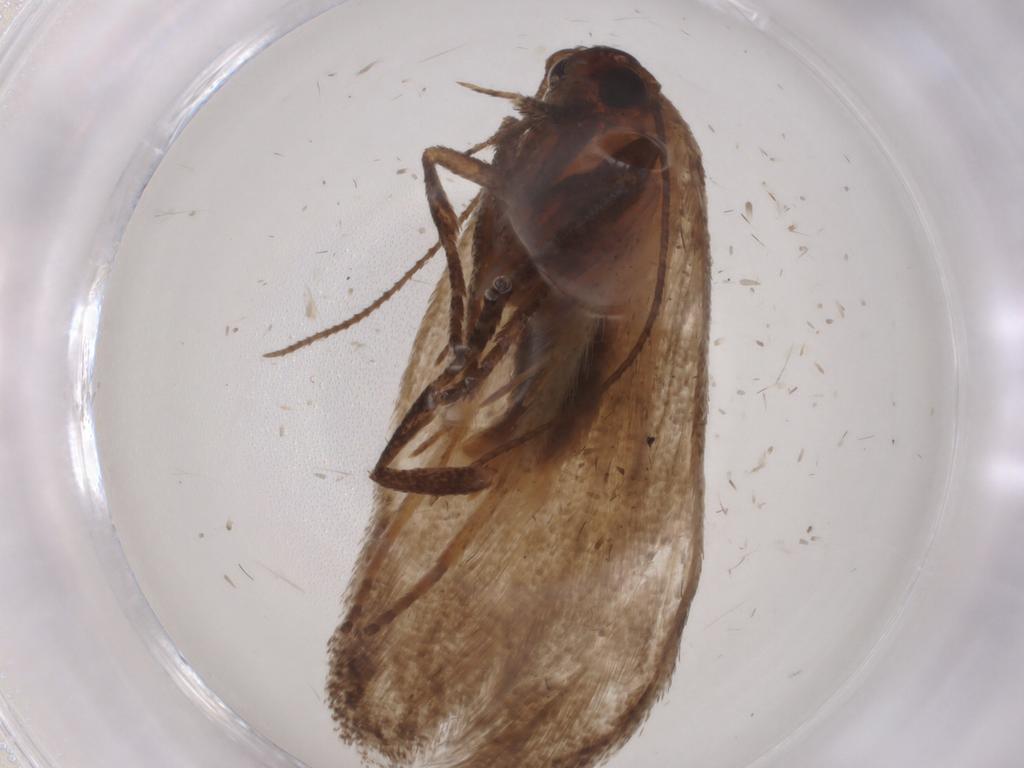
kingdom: Animalia
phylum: Arthropoda
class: Insecta
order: Lepidoptera
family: Cosmopterigidae
